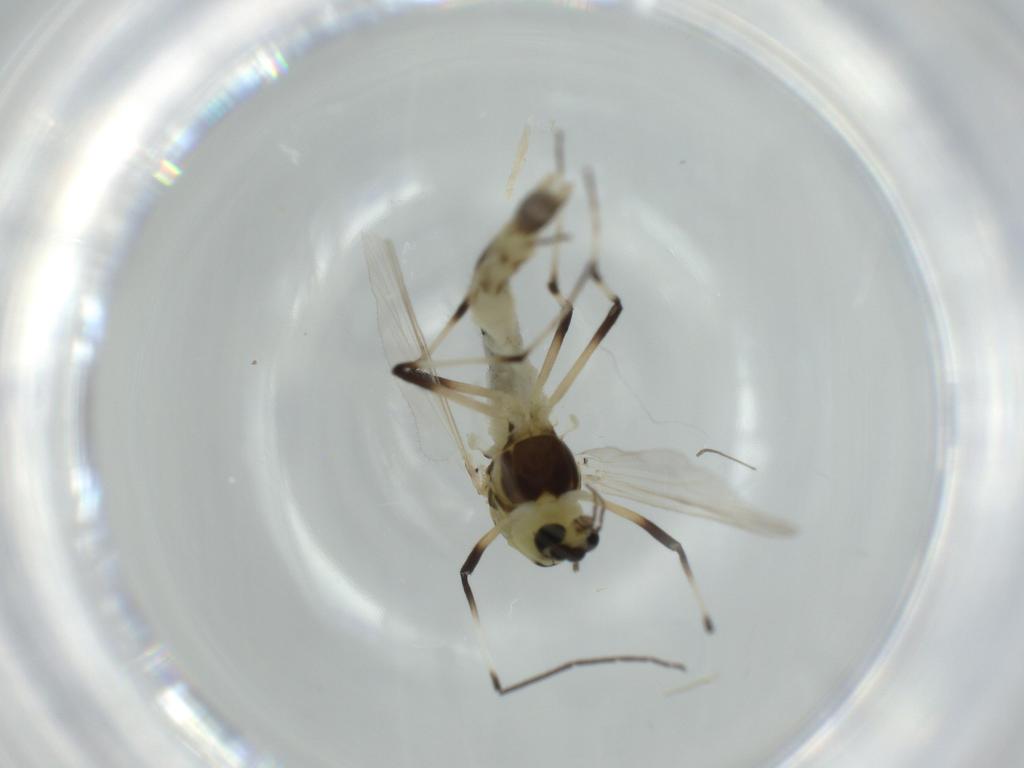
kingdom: Animalia
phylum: Arthropoda
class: Insecta
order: Diptera
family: Chironomidae
